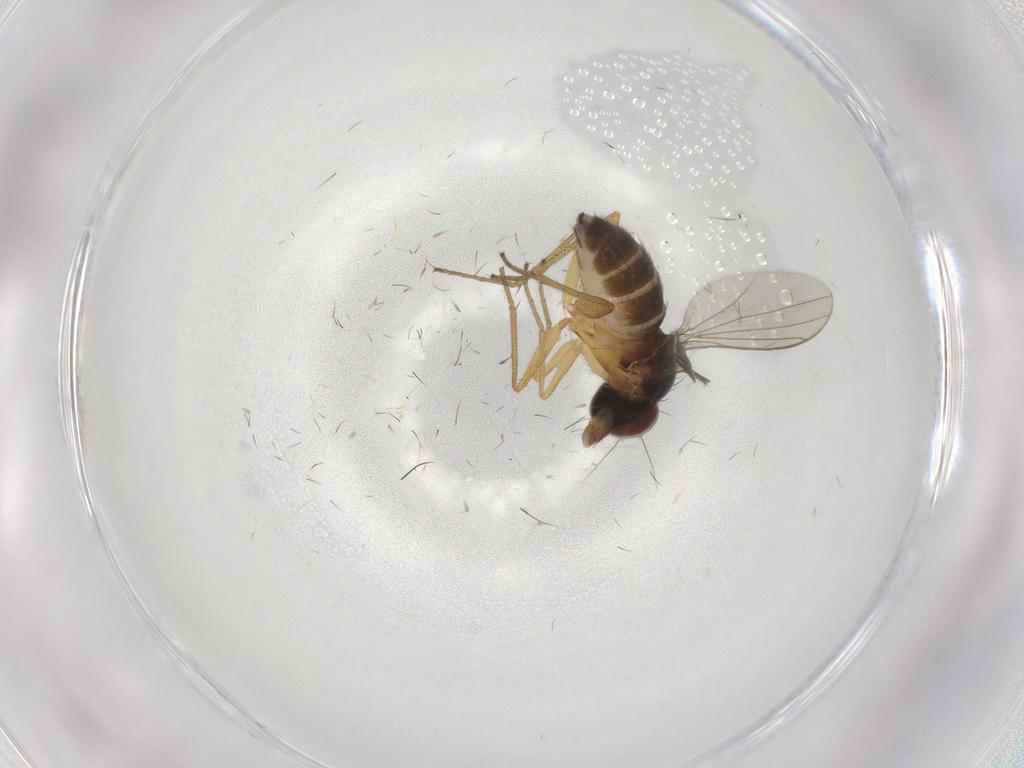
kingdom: Animalia
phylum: Arthropoda
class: Insecta
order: Diptera
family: Dolichopodidae
